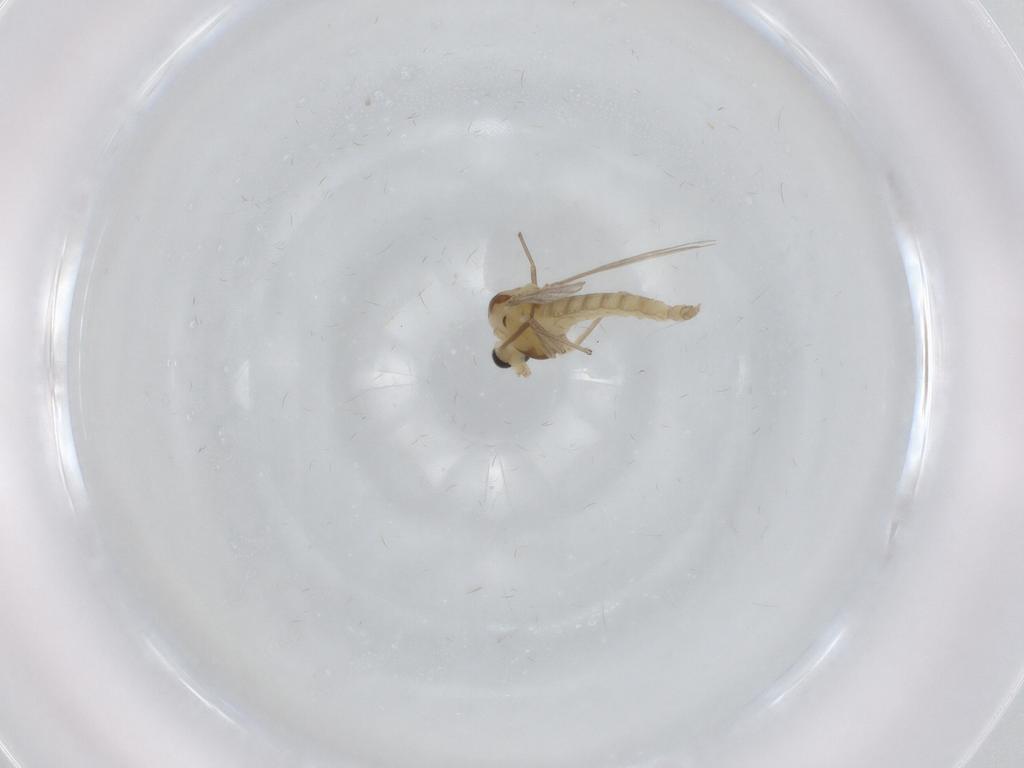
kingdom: Animalia
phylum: Arthropoda
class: Insecta
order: Diptera
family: Chironomidae
